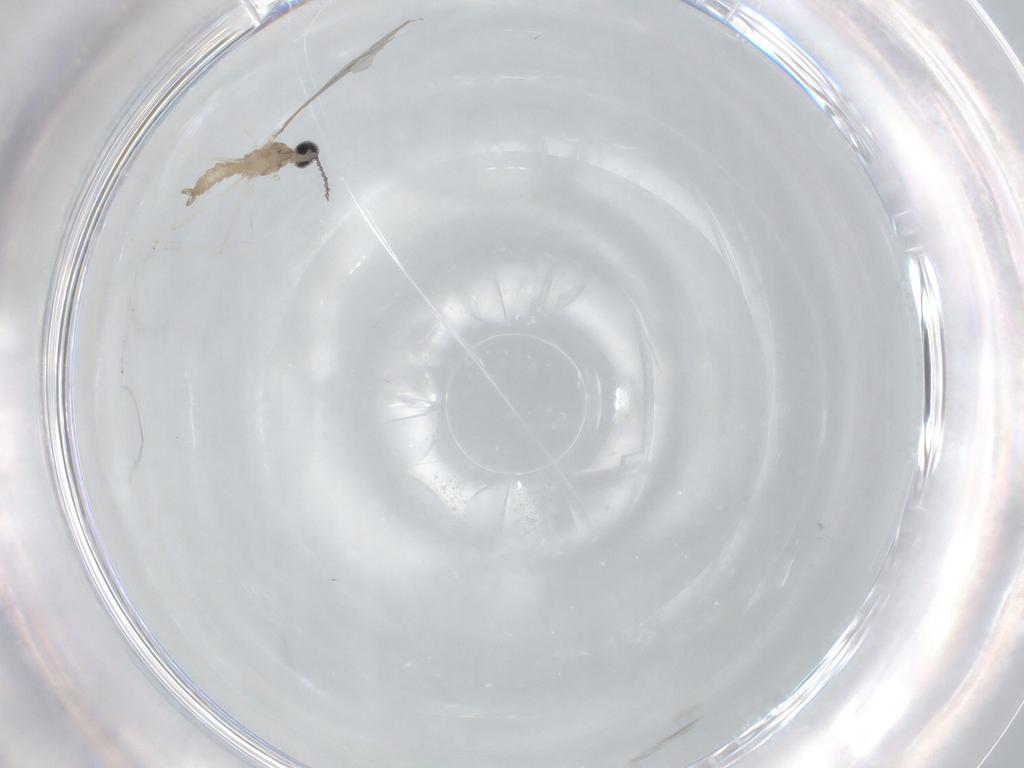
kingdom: Animalia
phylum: Arthropoda
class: Insecta
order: Diptera
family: Cecidomyiidae
